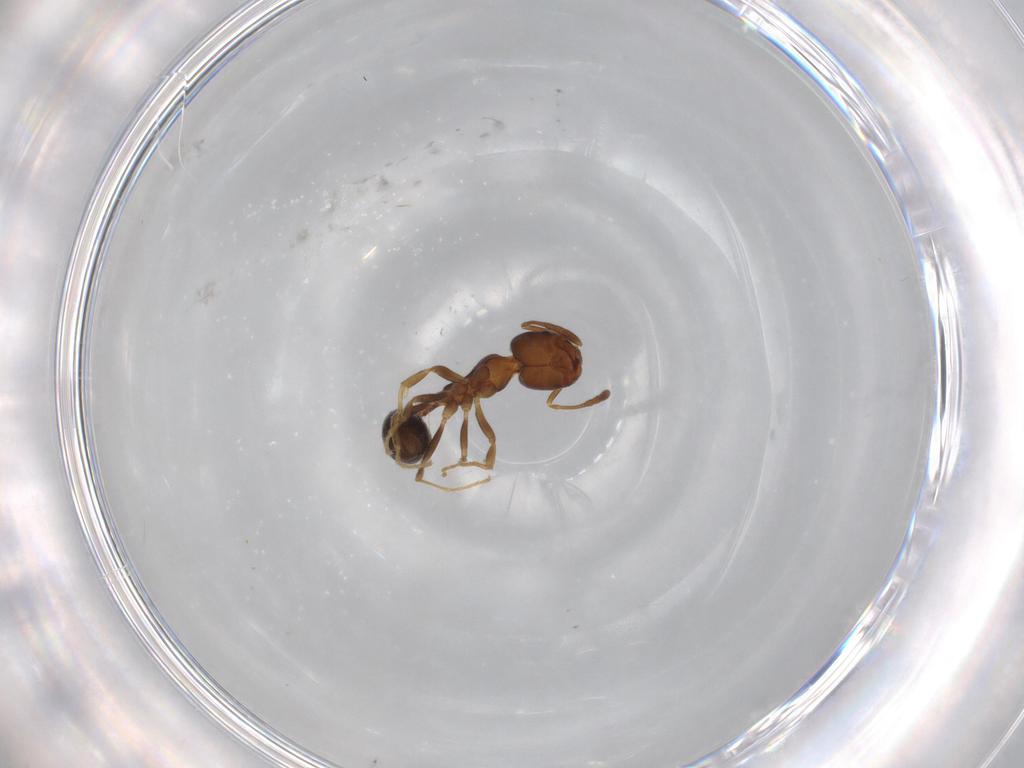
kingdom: Animalia
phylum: Arthropoda
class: Insecta
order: Hymenoptera
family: Formicidae
